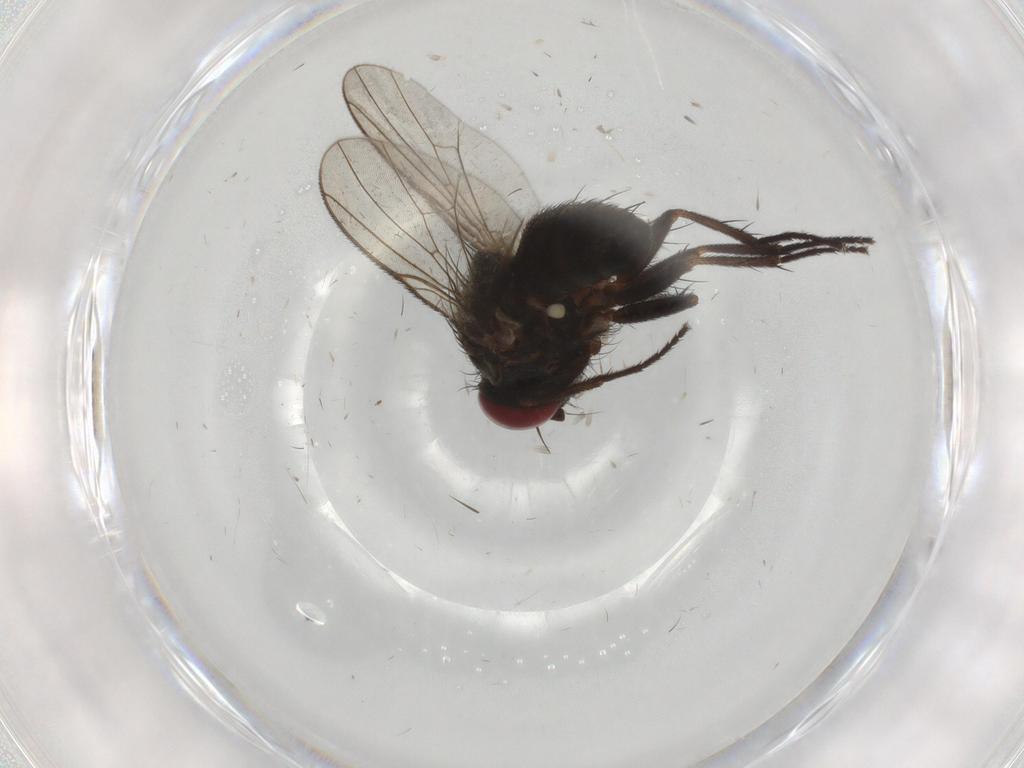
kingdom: Animalia
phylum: Arthropoda
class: Insecta
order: Diptera
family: Muscidae
